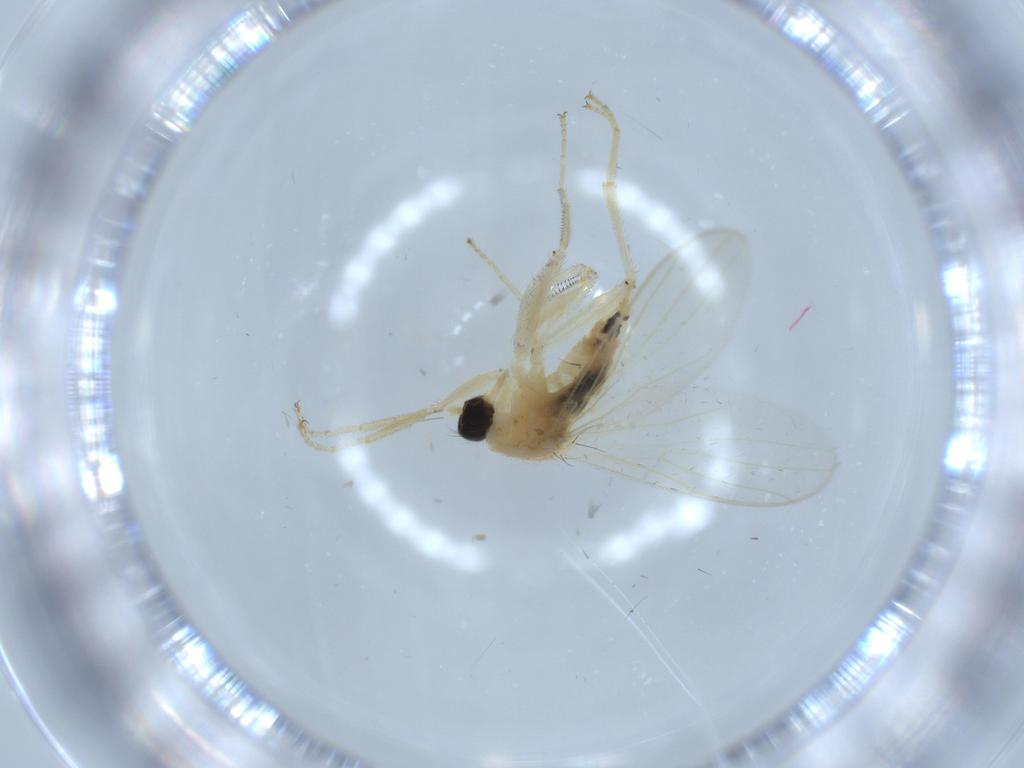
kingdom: Animalia
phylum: Arthropoda
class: Insecta
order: Diptera
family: Hybotidae
